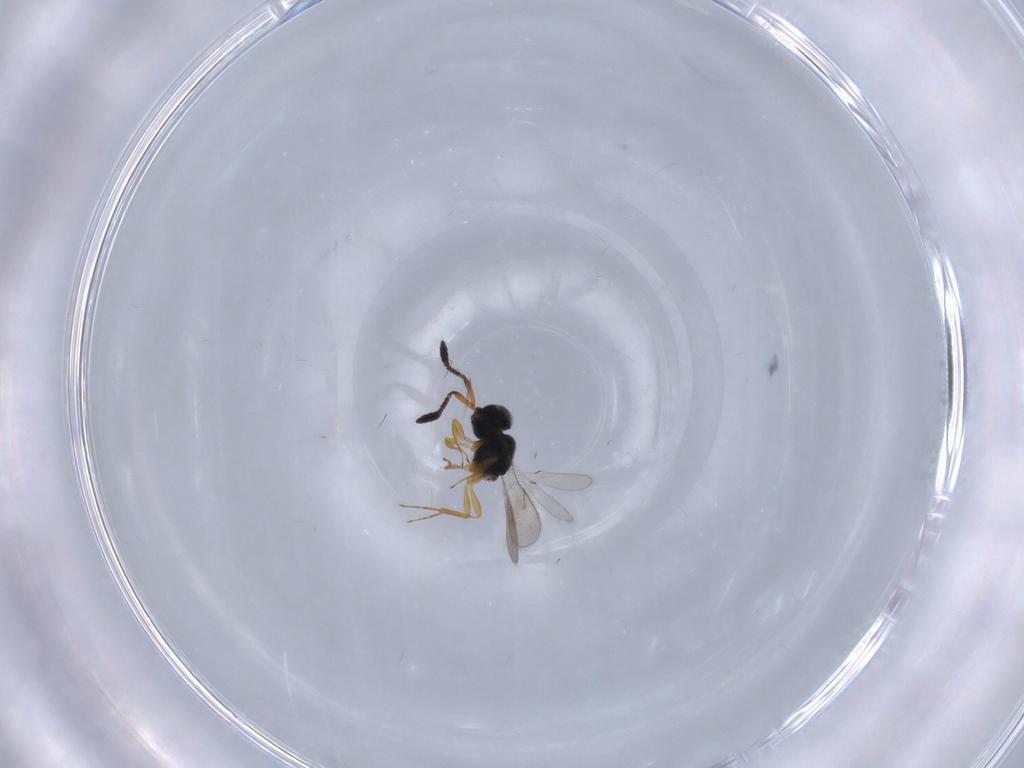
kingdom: Animalia
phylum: Arthropoda
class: Insecta
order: Hymenoptera
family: Scelionidae
